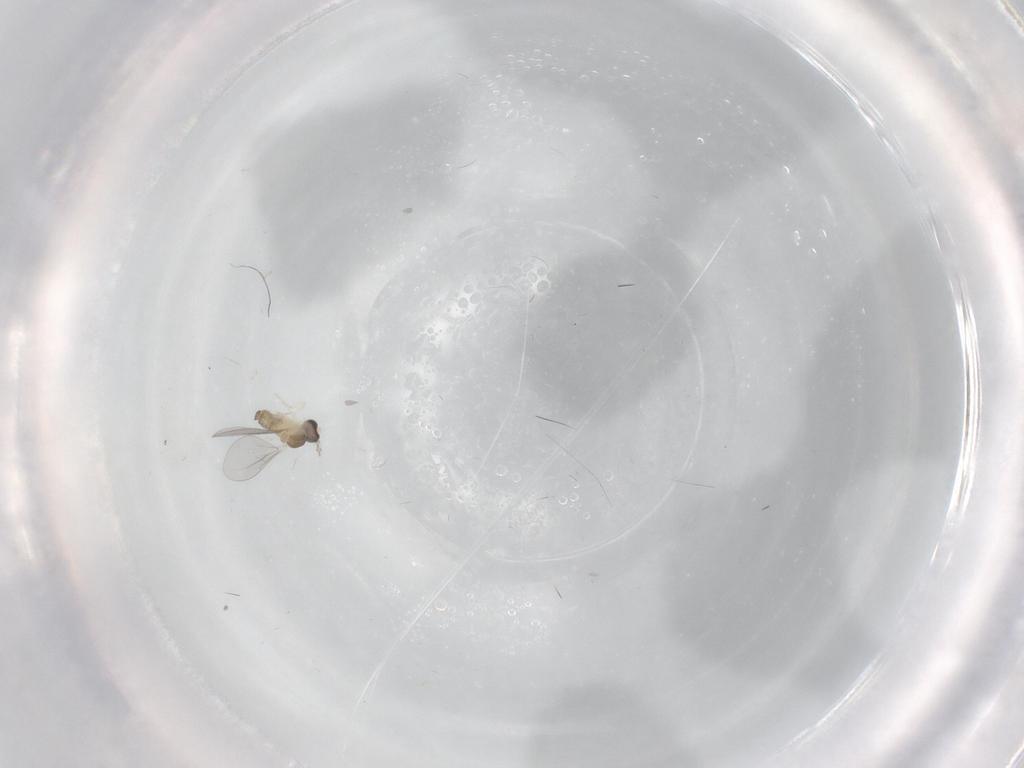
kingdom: Animalia
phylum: Arthropoda
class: Insecta
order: Diptera
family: Cecidomyiidae
